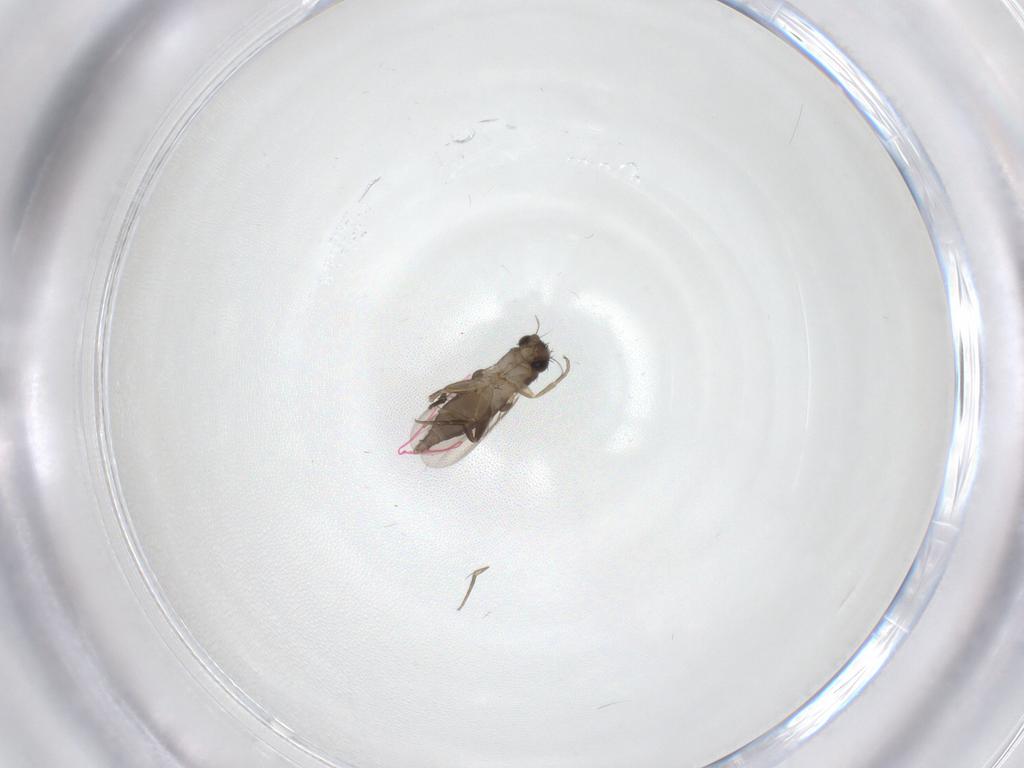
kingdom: Animalia
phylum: Arthropoda
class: Insecta
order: Diptera
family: Phoridae
